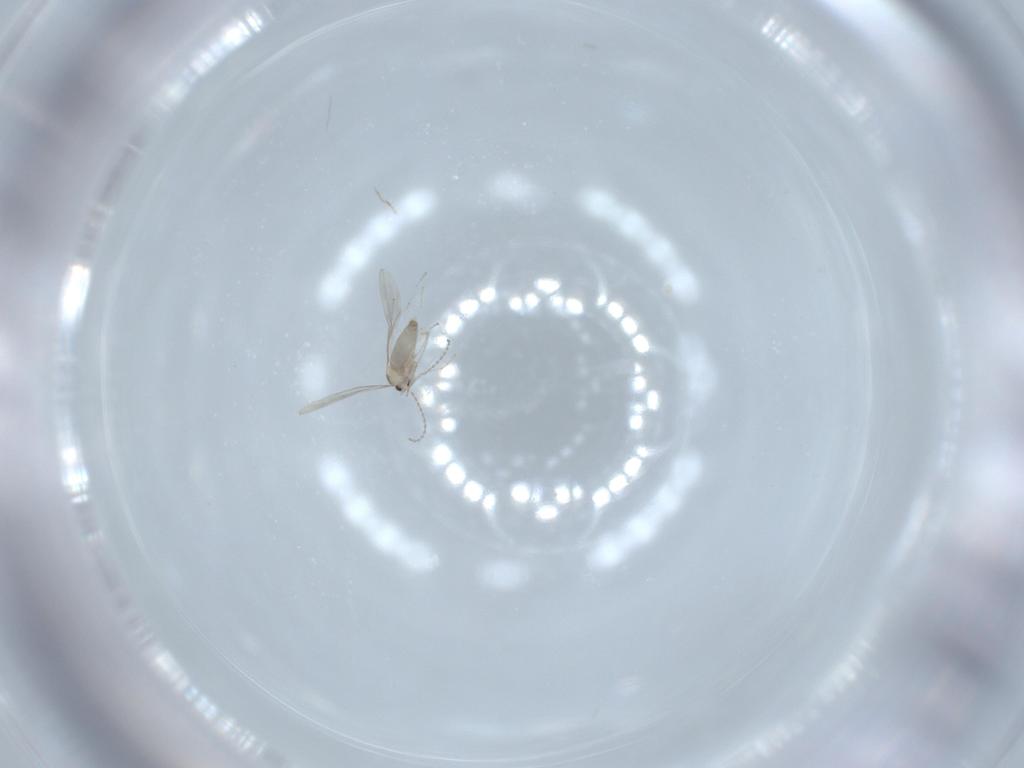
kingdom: Animalia
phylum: Arthropoda
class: Insecta
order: Diptera
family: Cecidomyiidae
